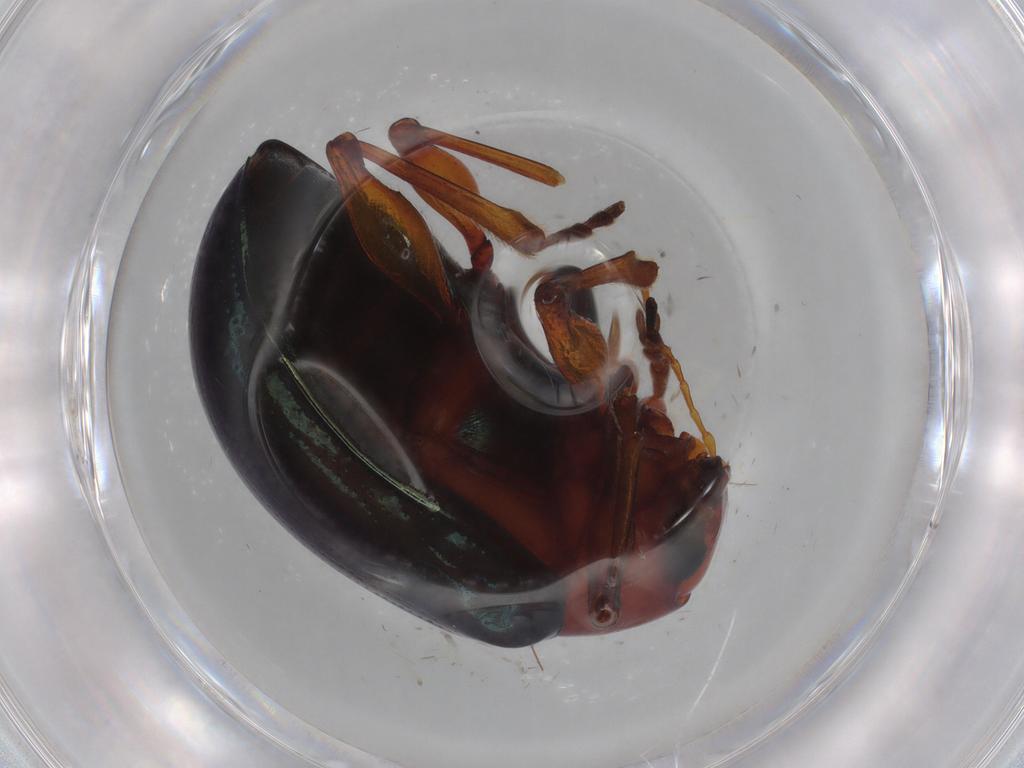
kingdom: Animalia
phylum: Arthropoda
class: Insecta
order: Coleoptera
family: Chrysomelidae
